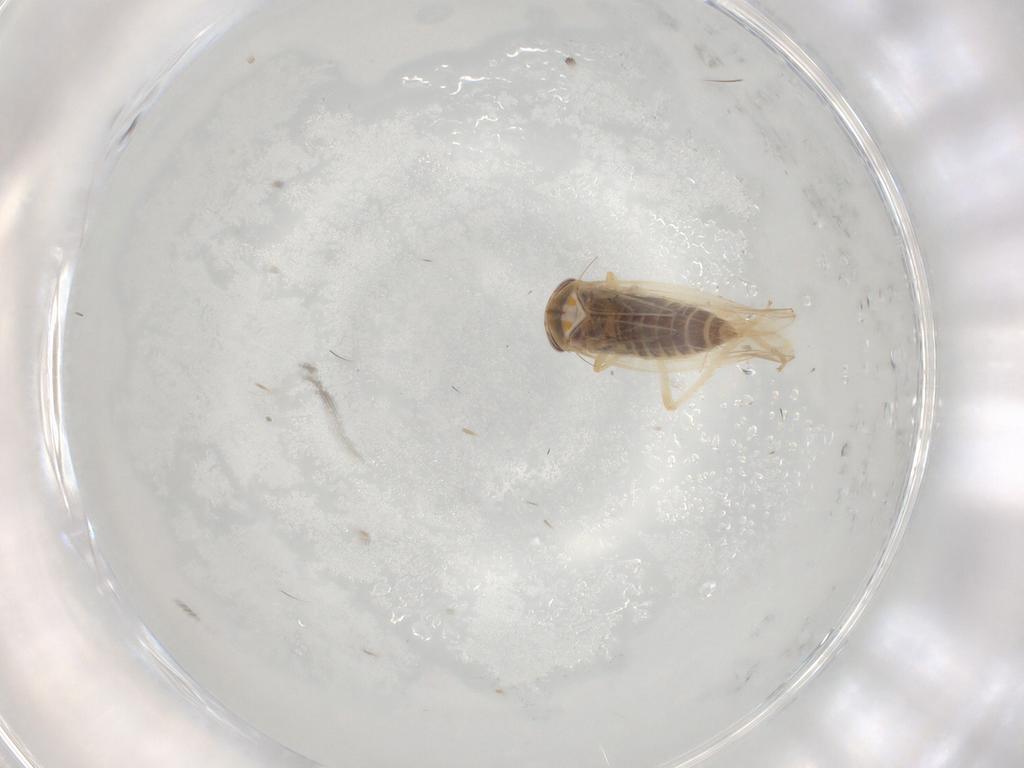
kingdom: Animalia
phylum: Arthropoda
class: Insecta
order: Hemiptera
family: Cicadellidae
